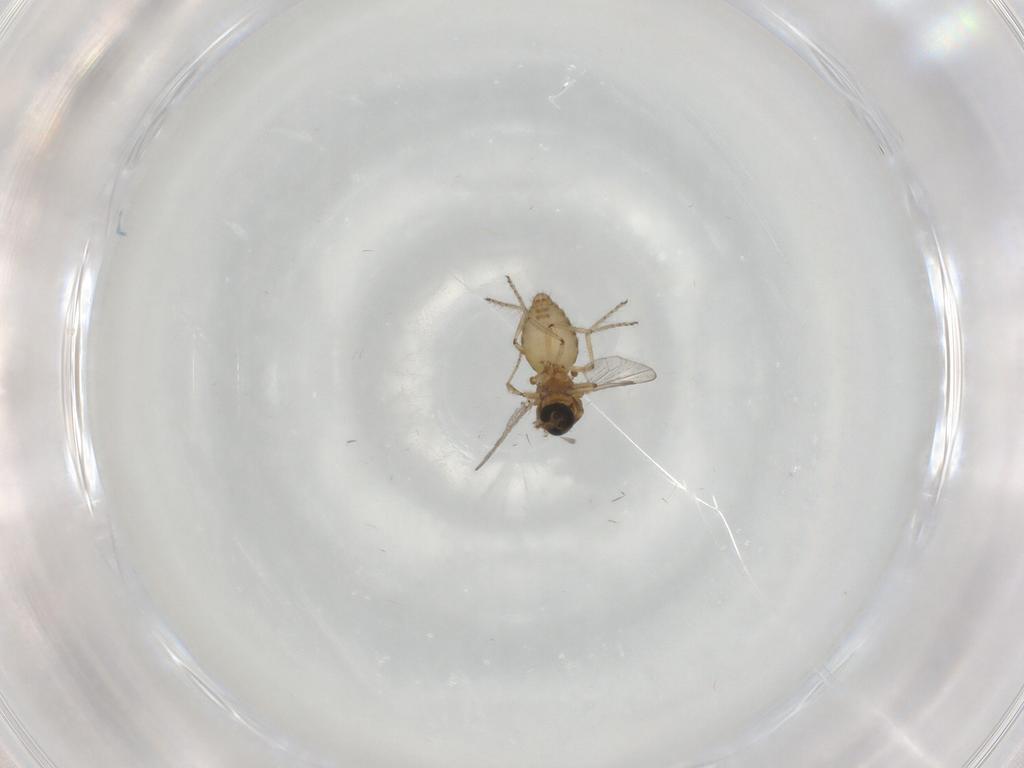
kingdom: Animalia
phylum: Arthropoda
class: Insecta
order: Diptera
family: Ceratopogonidae
